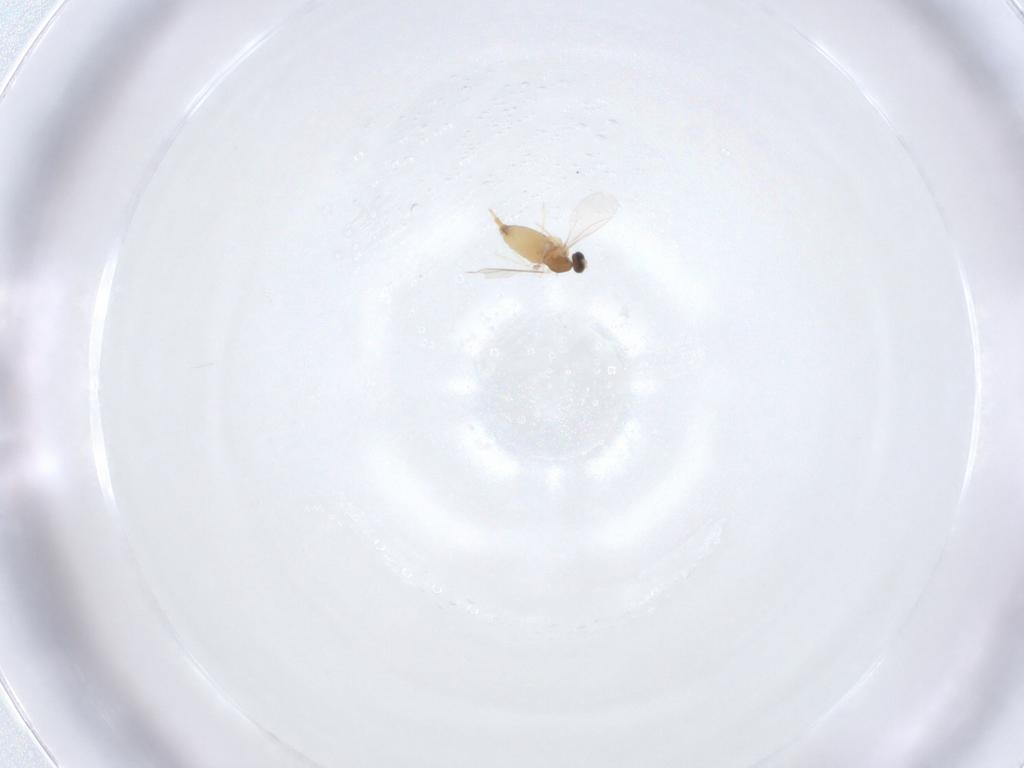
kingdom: Animalia
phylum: Arthropoda
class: Insecta
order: Diptera
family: Cecidomyiidae
